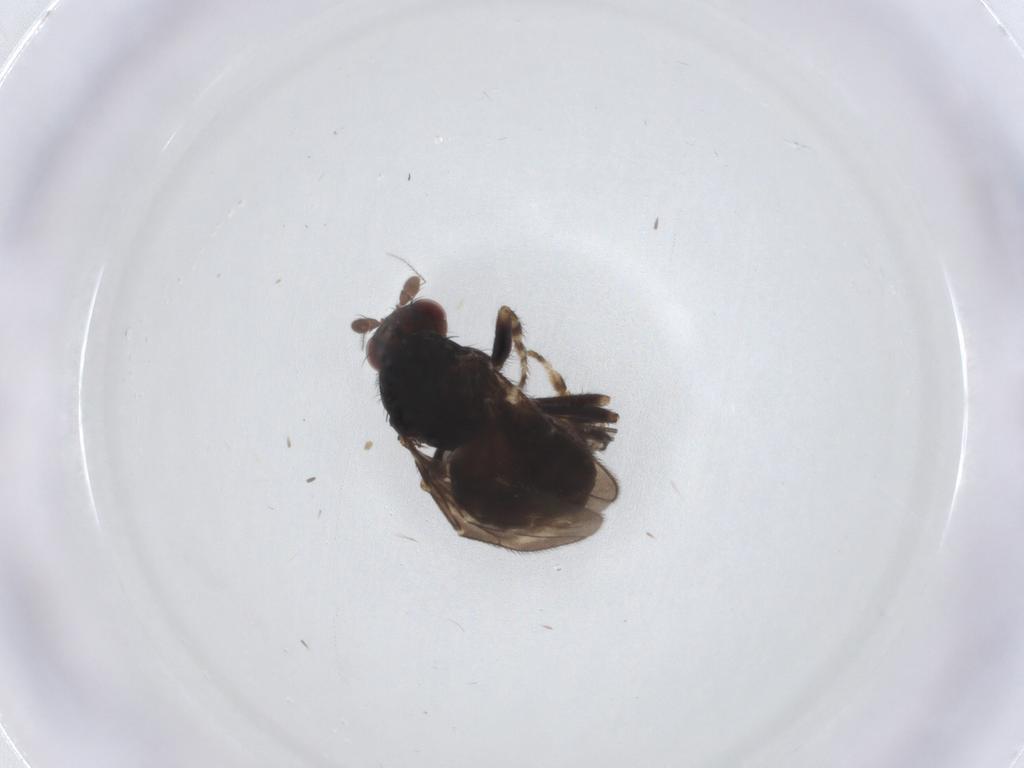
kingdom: Animalia
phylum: Arthropoda
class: Insecta
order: Diptera
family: Sphaeroceridae
